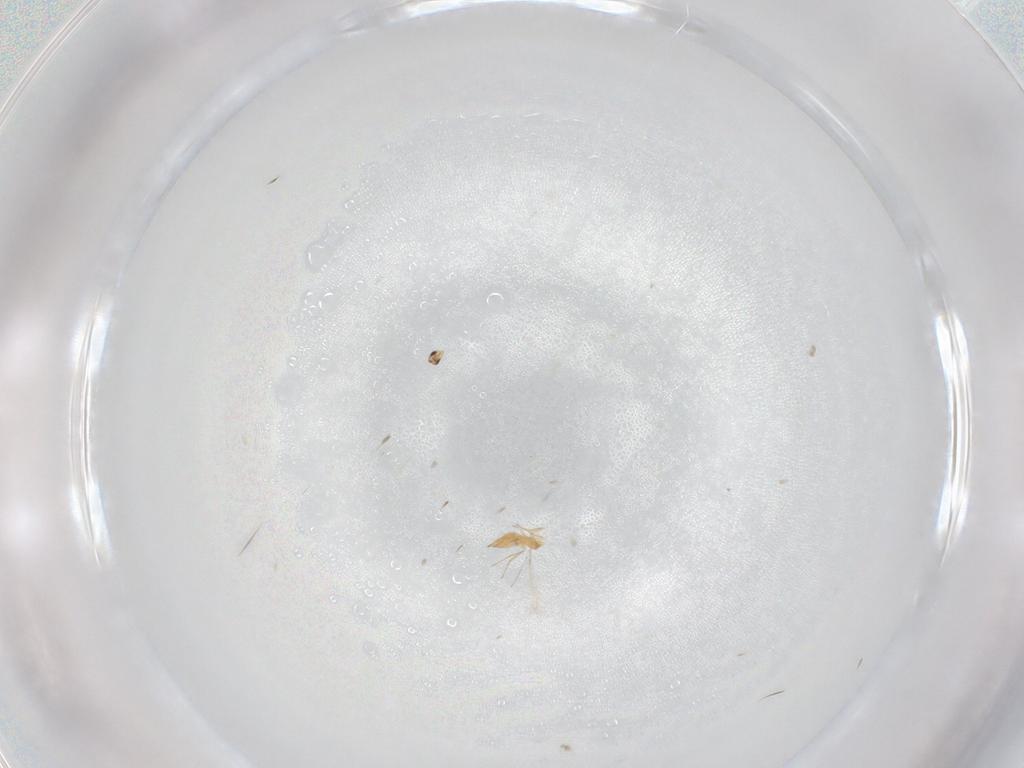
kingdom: Animalia
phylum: Arthropoda
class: Insecta
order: Hymenoptera
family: Mymaridae
